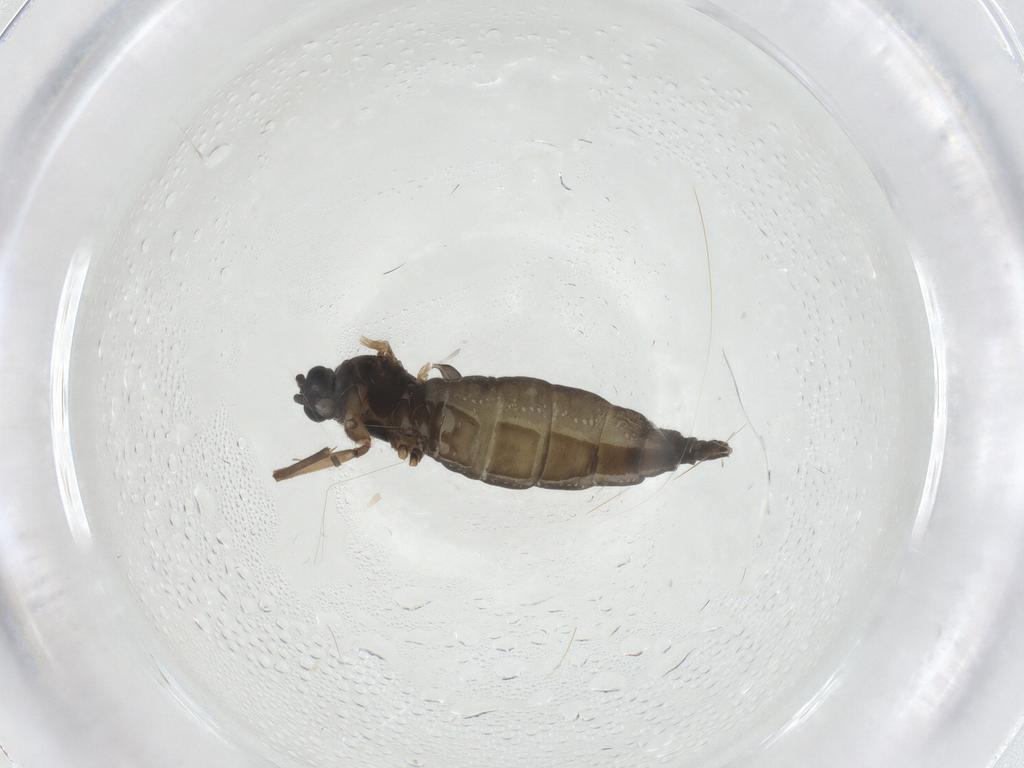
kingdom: Animalia
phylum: Arthropoda
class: Insecta
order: Diptera
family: Sciaridae
